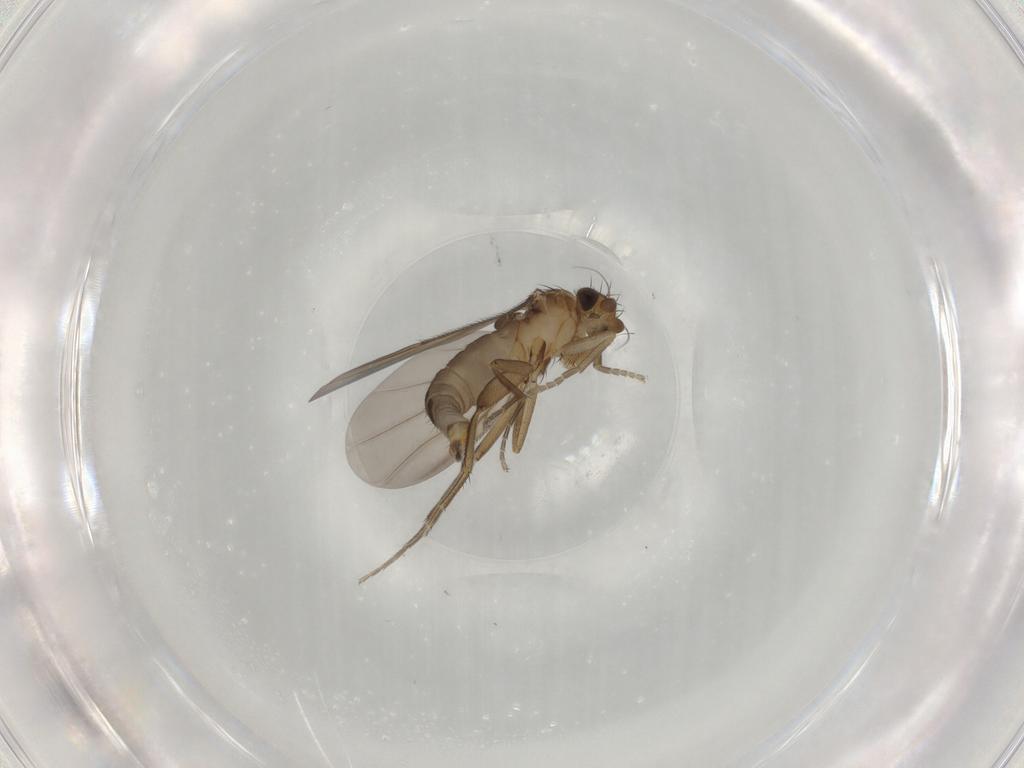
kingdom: Animalia
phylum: Arthropoda
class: Insecta
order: Diptera
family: Phoridae
